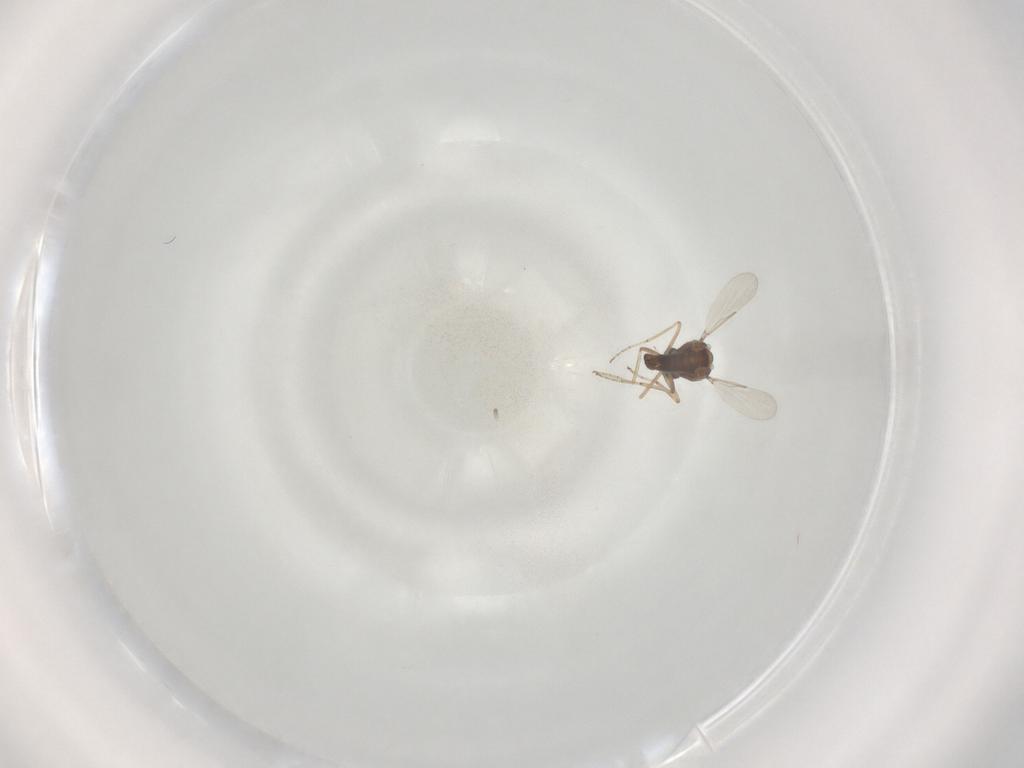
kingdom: Animalia
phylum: Arthropoda
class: Insecta
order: Diptera
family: Ceratopogonidae
